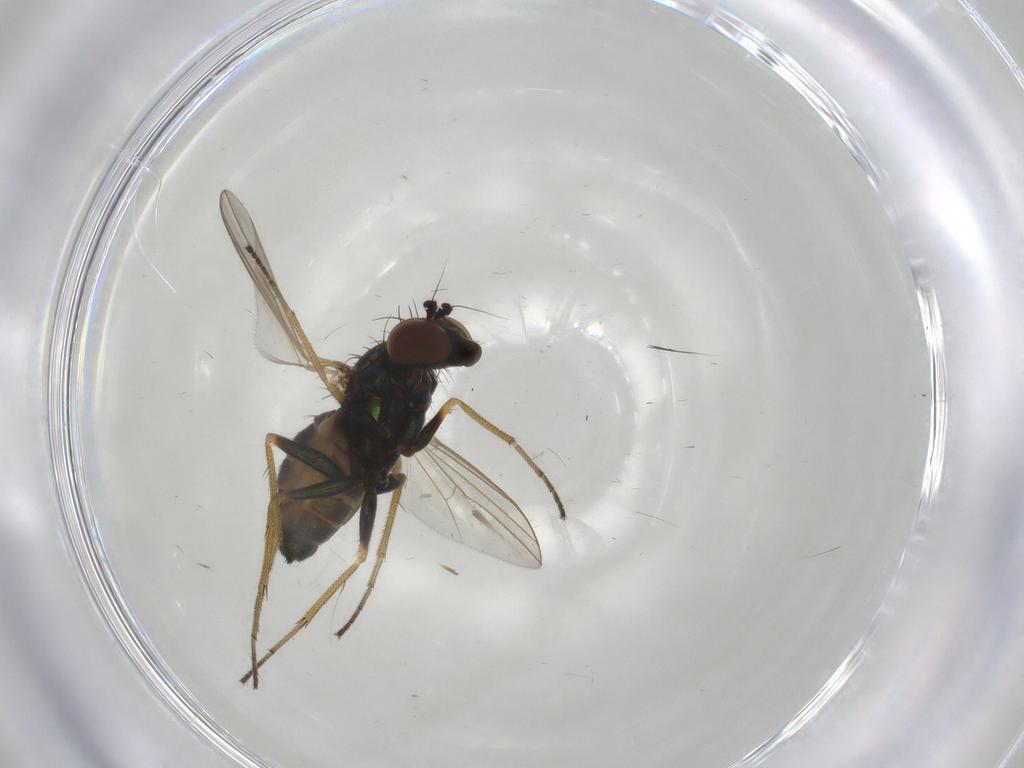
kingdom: Animalia
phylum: Arthropoda
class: Insecta
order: Diptera
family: Dolichopodidae
